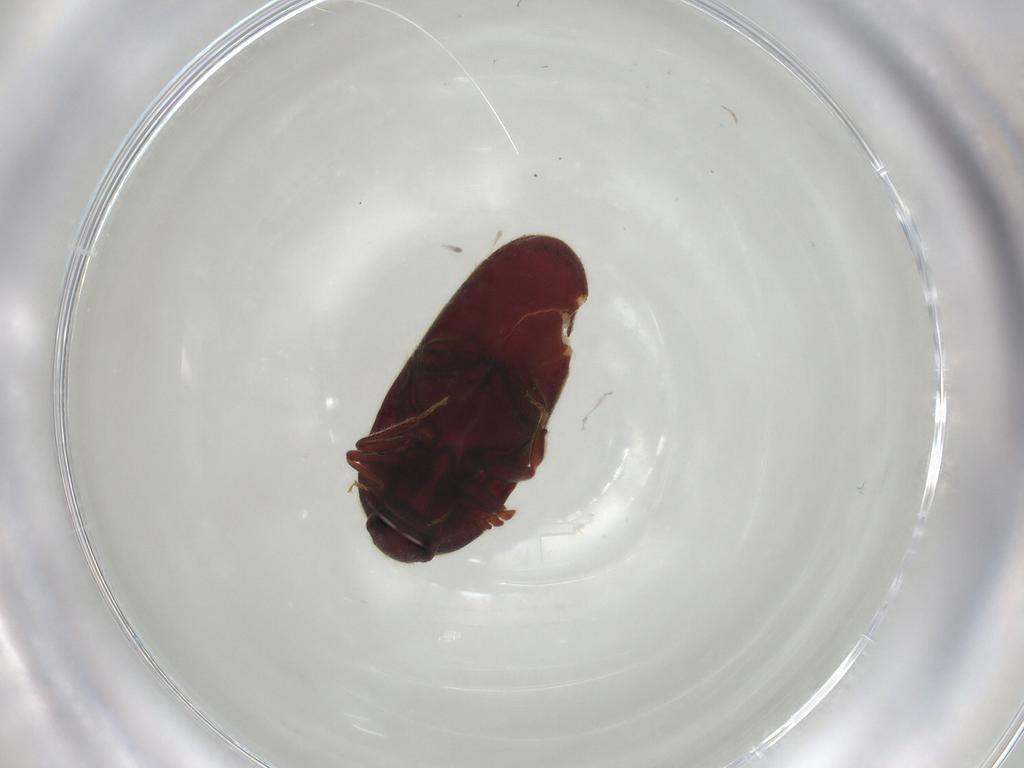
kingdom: Animalia
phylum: Arthropoda
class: Insecta
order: Coleoptera
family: Throscidae
